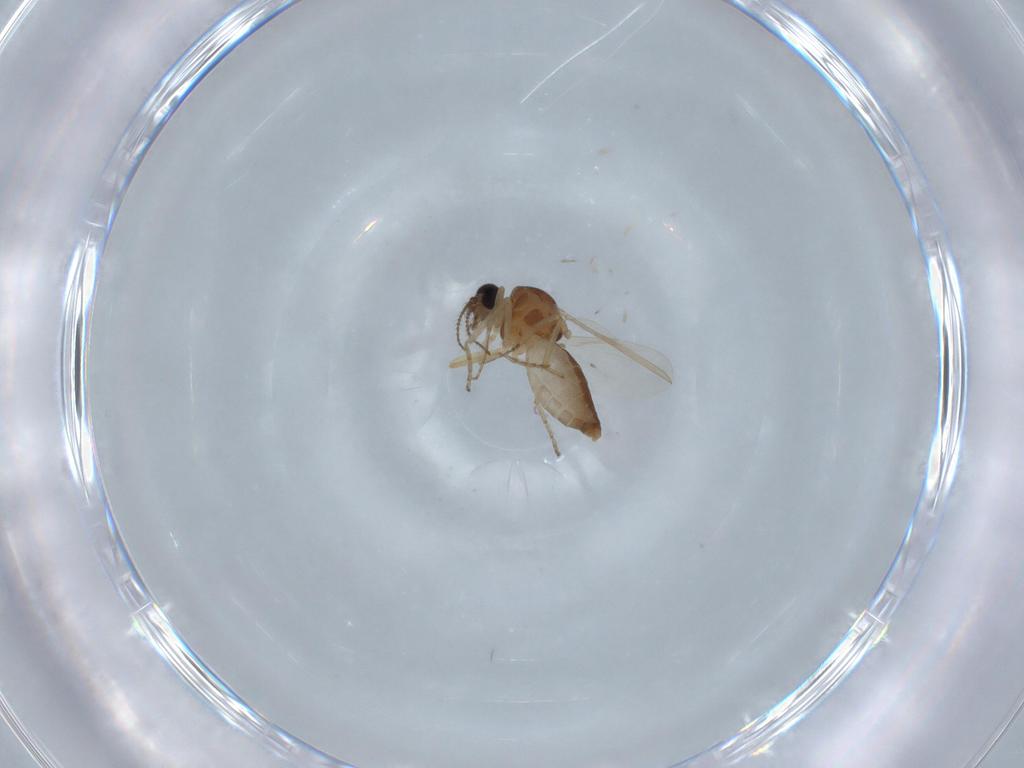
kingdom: Animalia
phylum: Arthropoda
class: Insecta
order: Diptera
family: Ceratopogonidae
